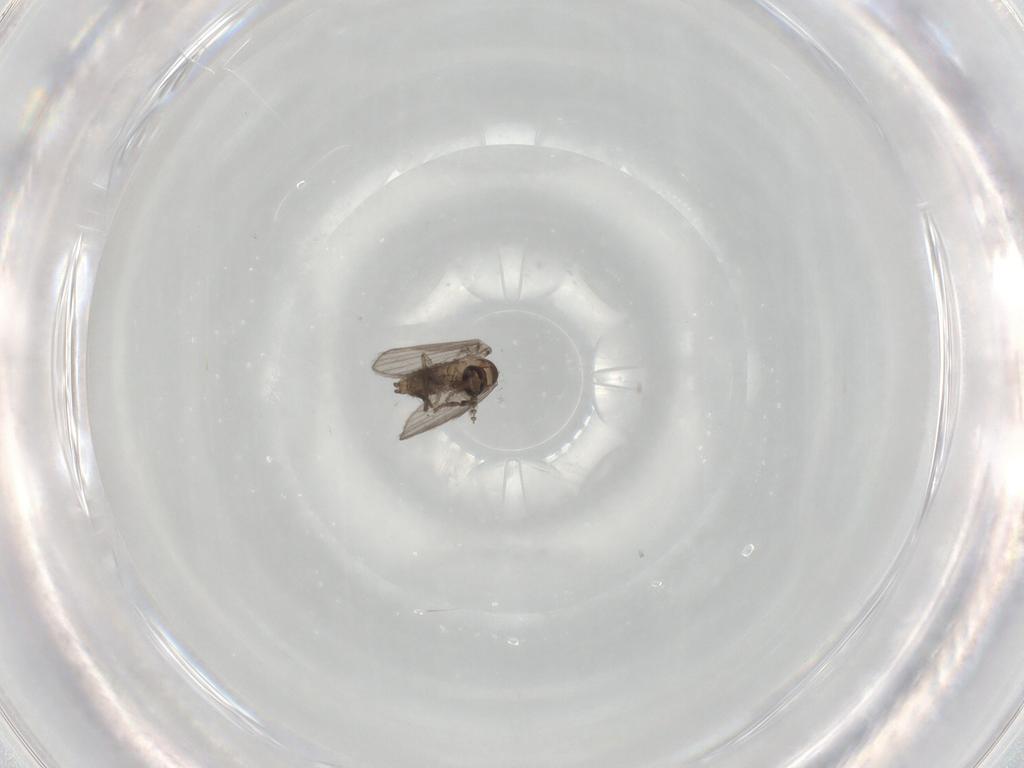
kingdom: Animalia
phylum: Arthropoda
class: Insecta
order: Diptera
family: Psychodidae
